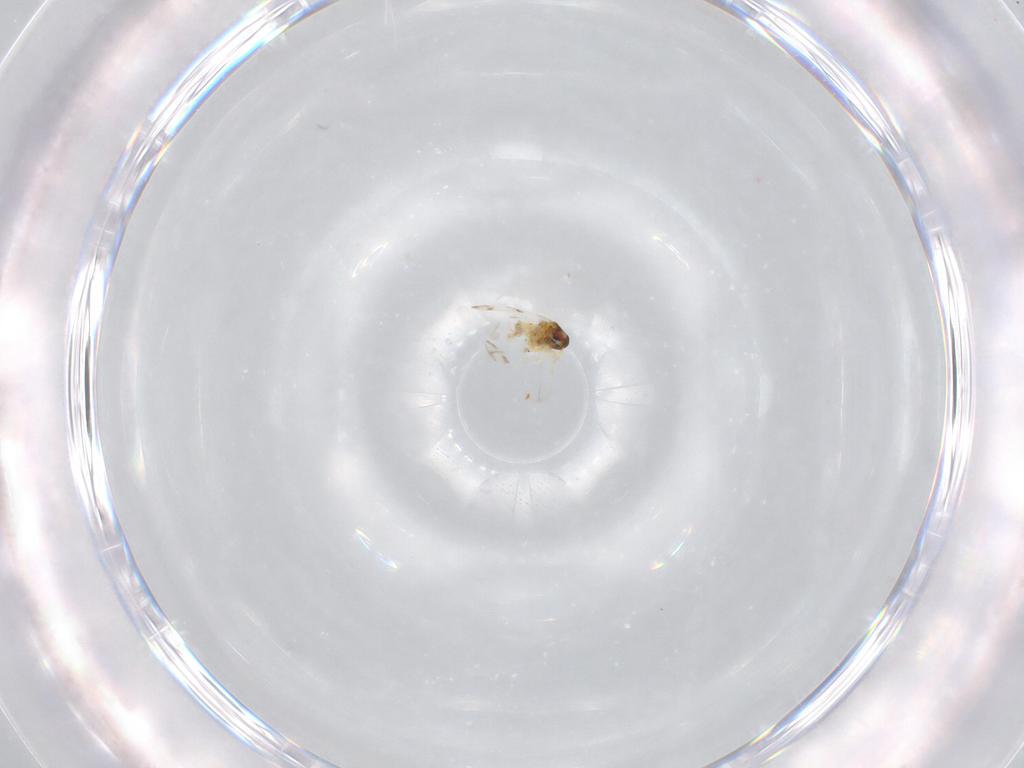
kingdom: Animalia
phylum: Arthropoda
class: Insecta
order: Hemiptera
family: Aleyrodidae
